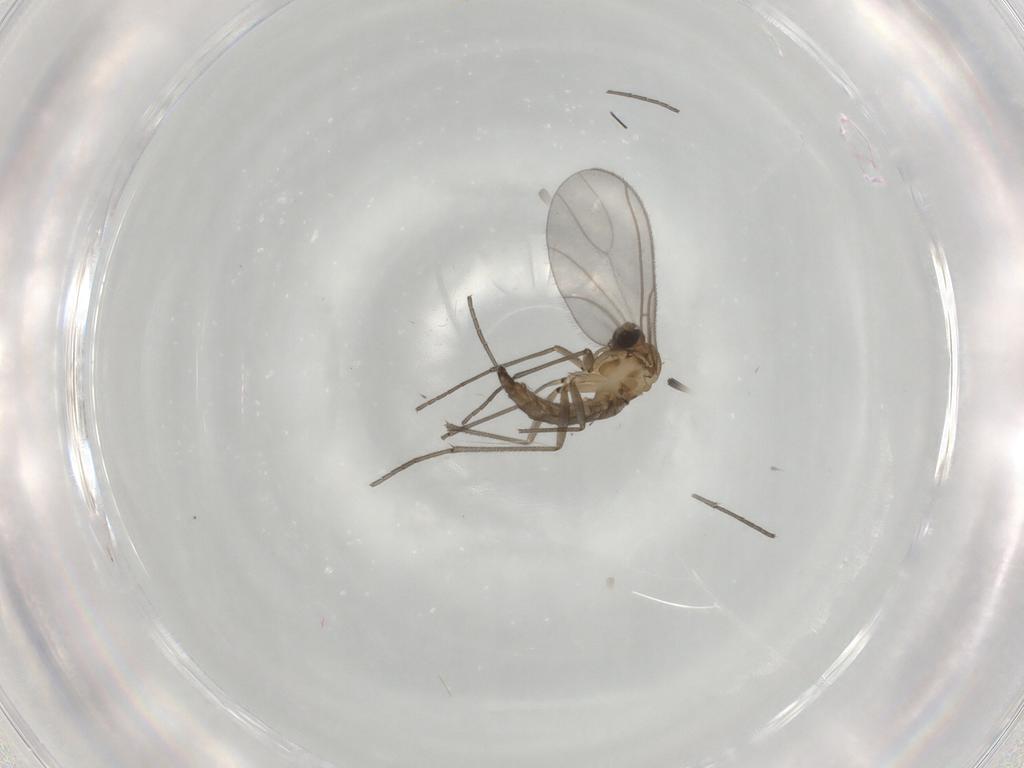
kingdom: Animalia
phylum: Arthropoda
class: Insecta
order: Diptera
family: Sciaridae
